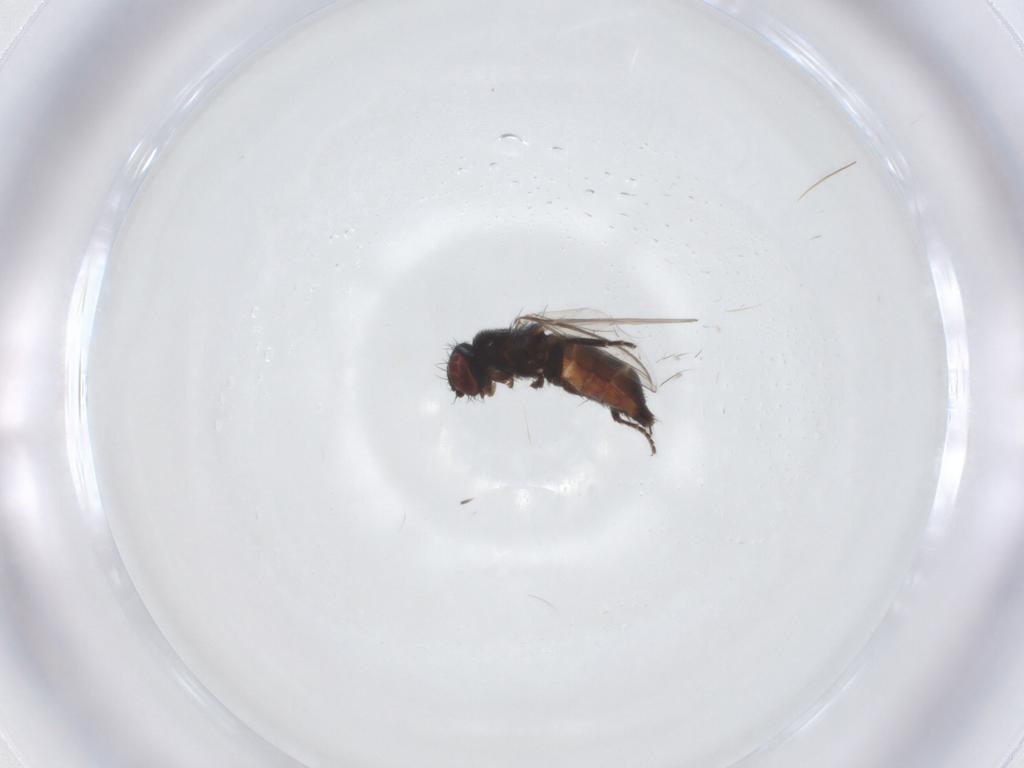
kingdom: Animalia
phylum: Arthropoda
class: Insecta
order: Diptera
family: Milichiidae
